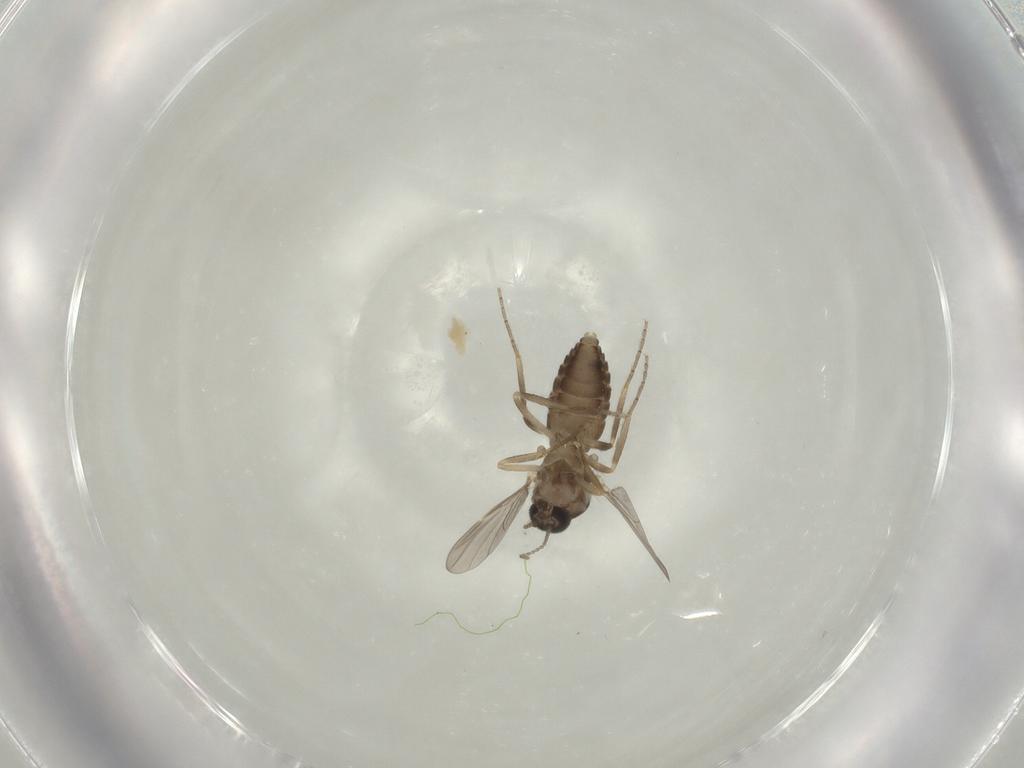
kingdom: Animalia
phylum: Arthropoda
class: Insecta
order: Diptera
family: Ceratopogonidae
